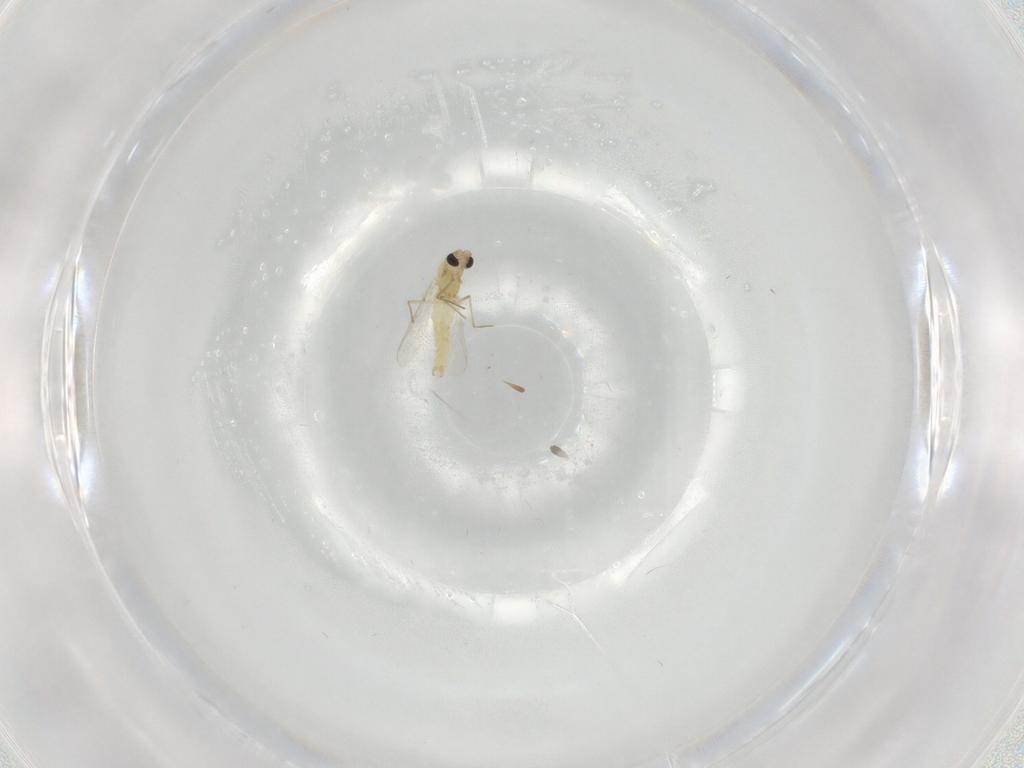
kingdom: Animalia
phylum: Arthropoda
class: Insecta
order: Diptera
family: Chironomidae
